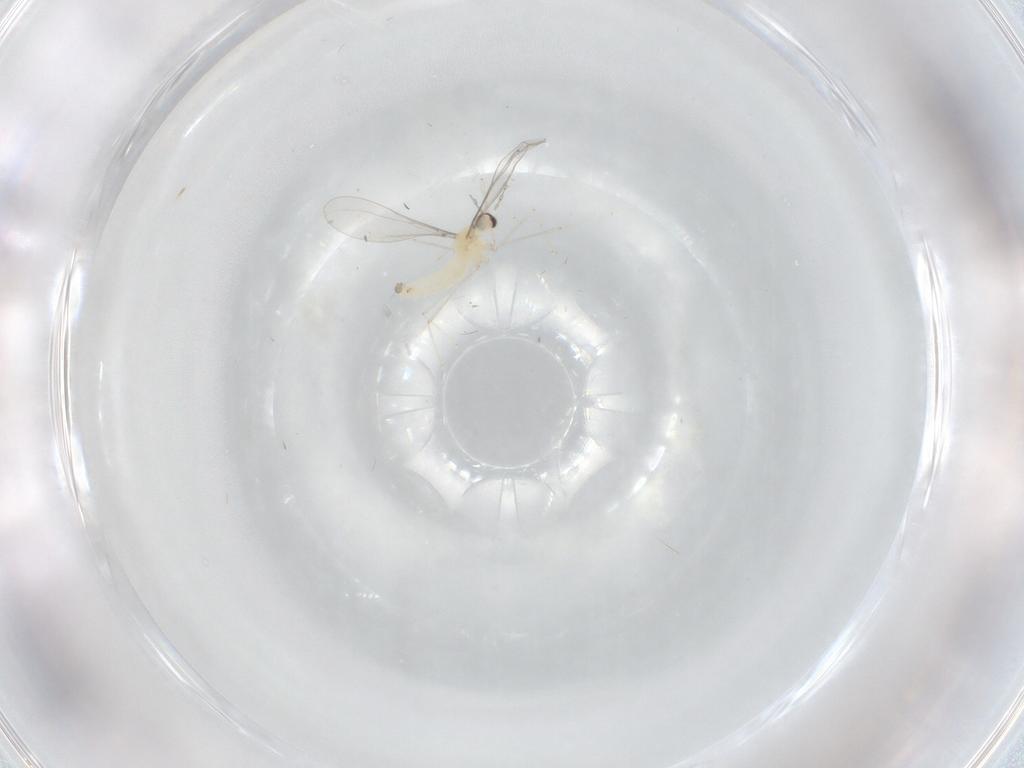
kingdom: Animalia
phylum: Arthropoda
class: Insecta
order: Diptera
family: Cecidomyiidae
